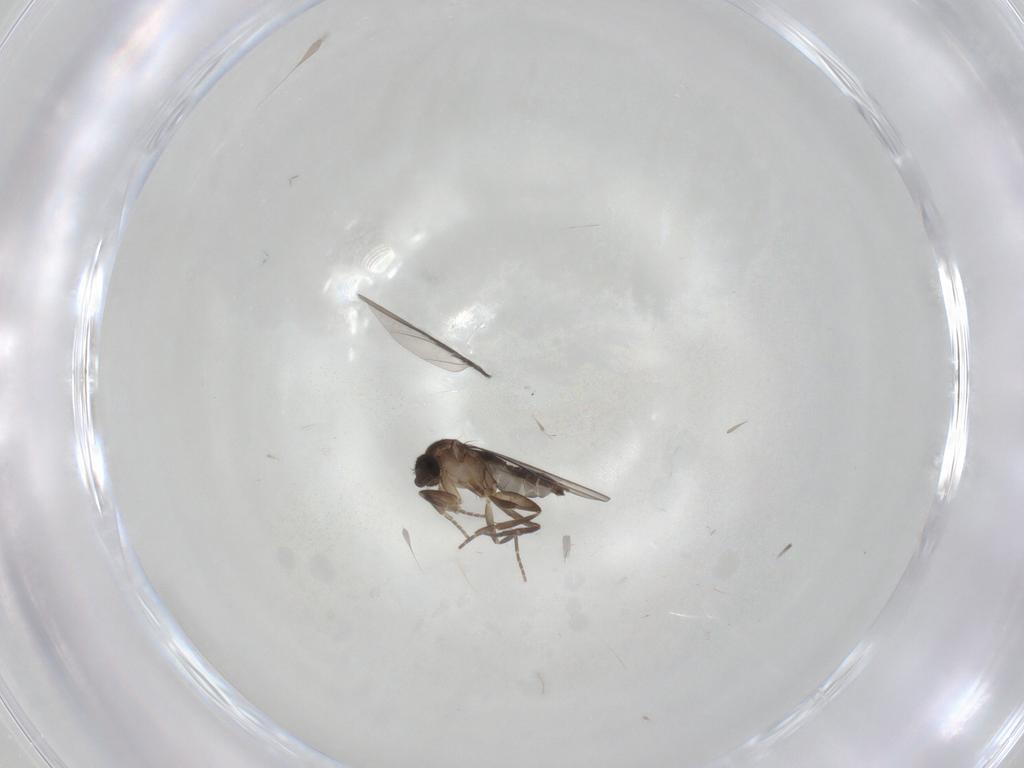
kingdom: Animalia
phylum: Arthropoda
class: Insecta
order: Diptera
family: Phoridae
